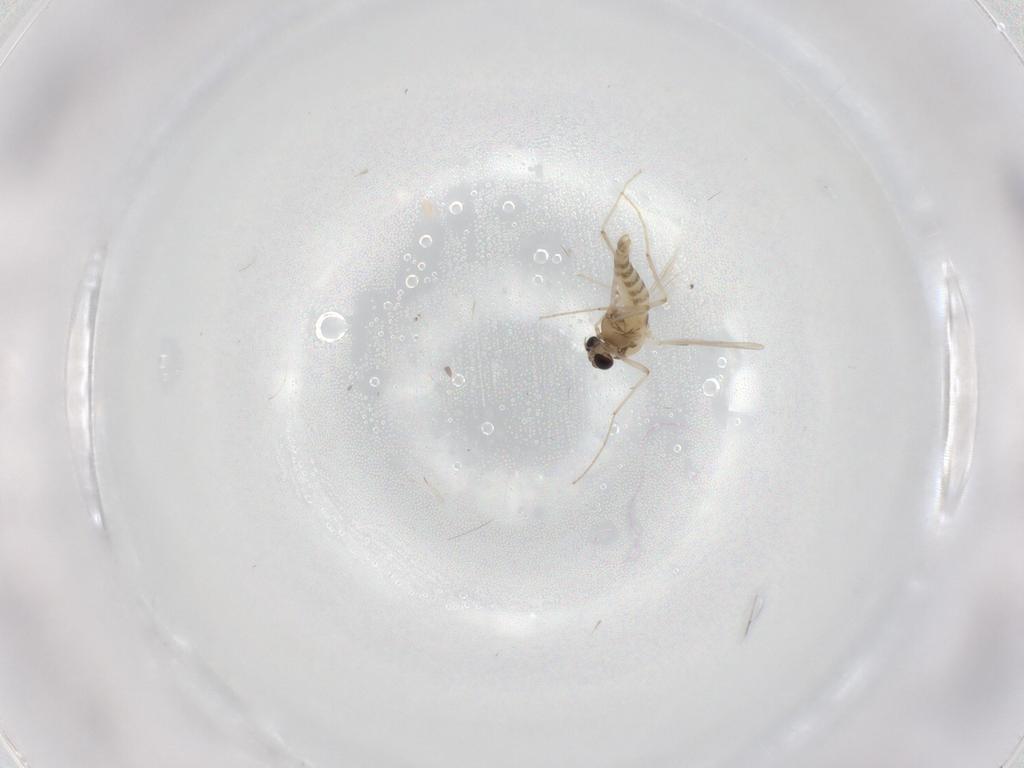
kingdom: Animalia
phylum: Arthropoda
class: Insecta
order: Diptera
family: Chironomidae
